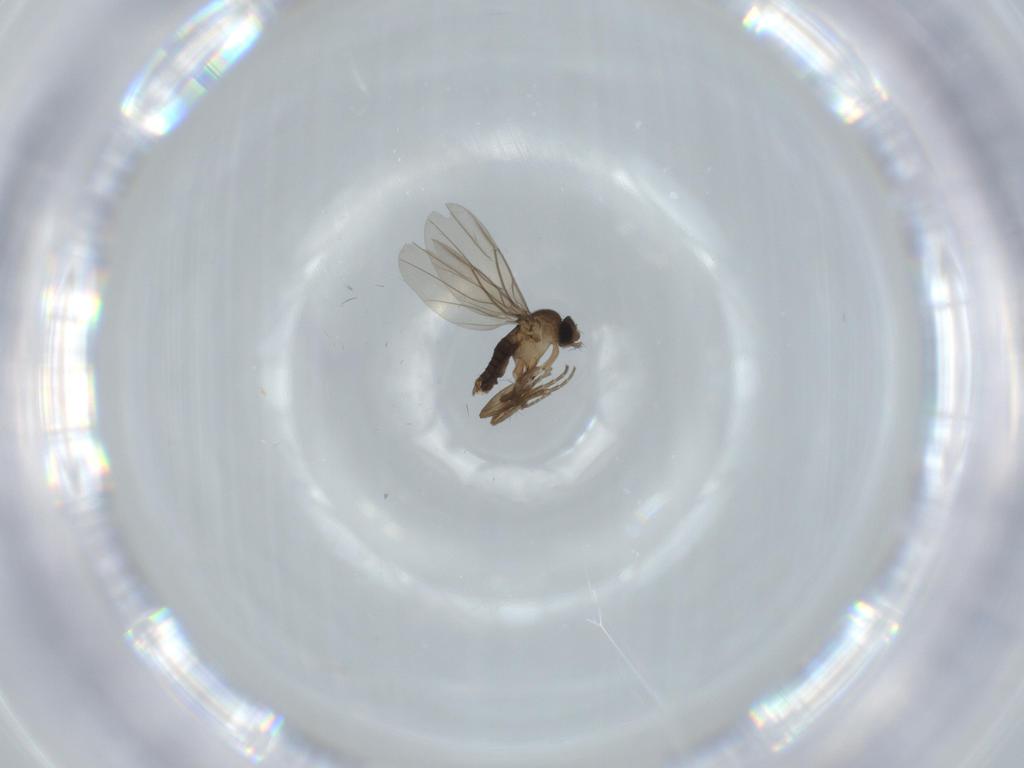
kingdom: Animalia
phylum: Arthropoda
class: Insecta
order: Diptera
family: Phoridae
